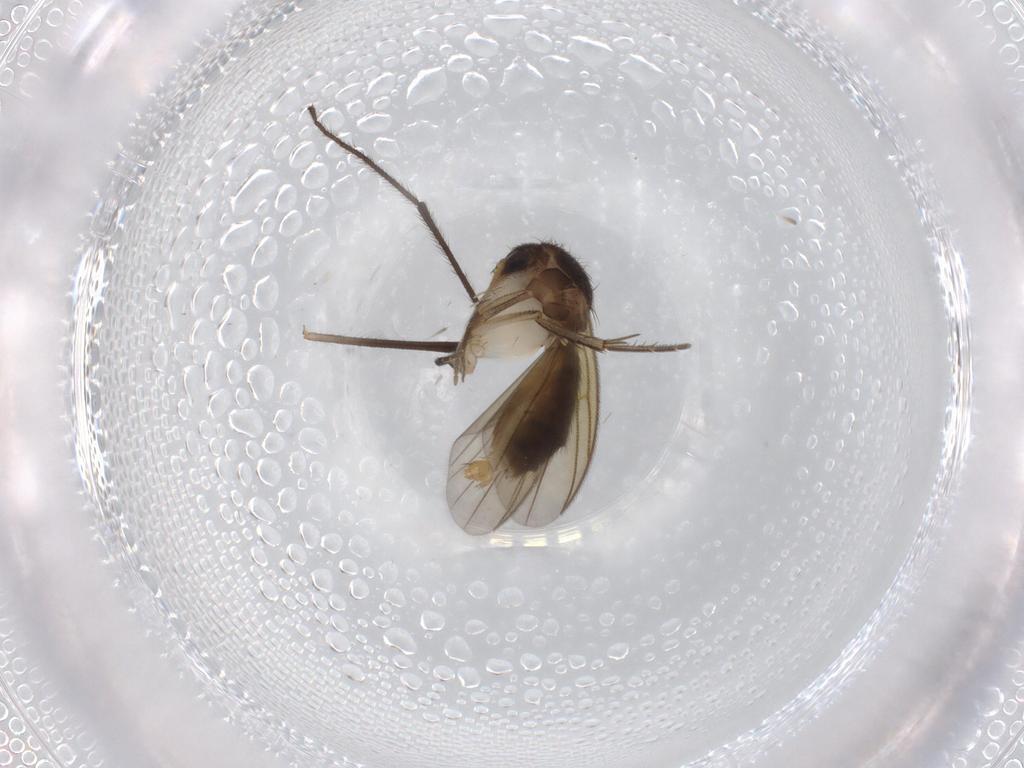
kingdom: Animalia
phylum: Arthropoda
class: Insecta
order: Diptera
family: Limoniidae
